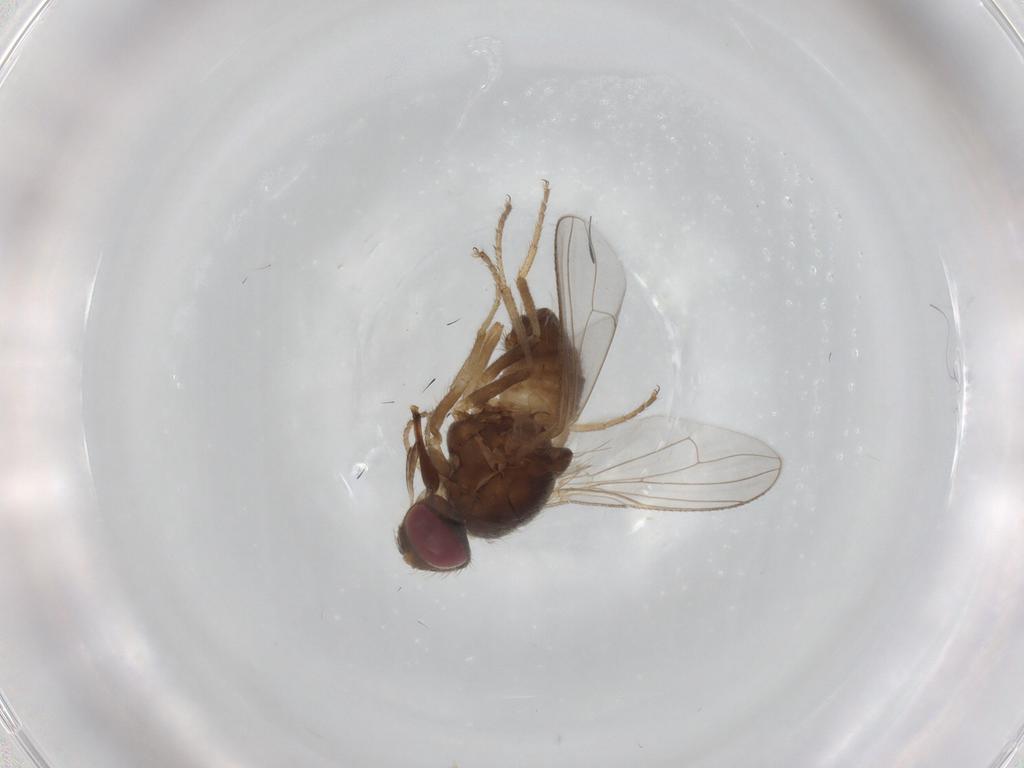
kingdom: Animalia
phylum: Arthropoda
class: Insecta
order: Diptera
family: Muscidae
